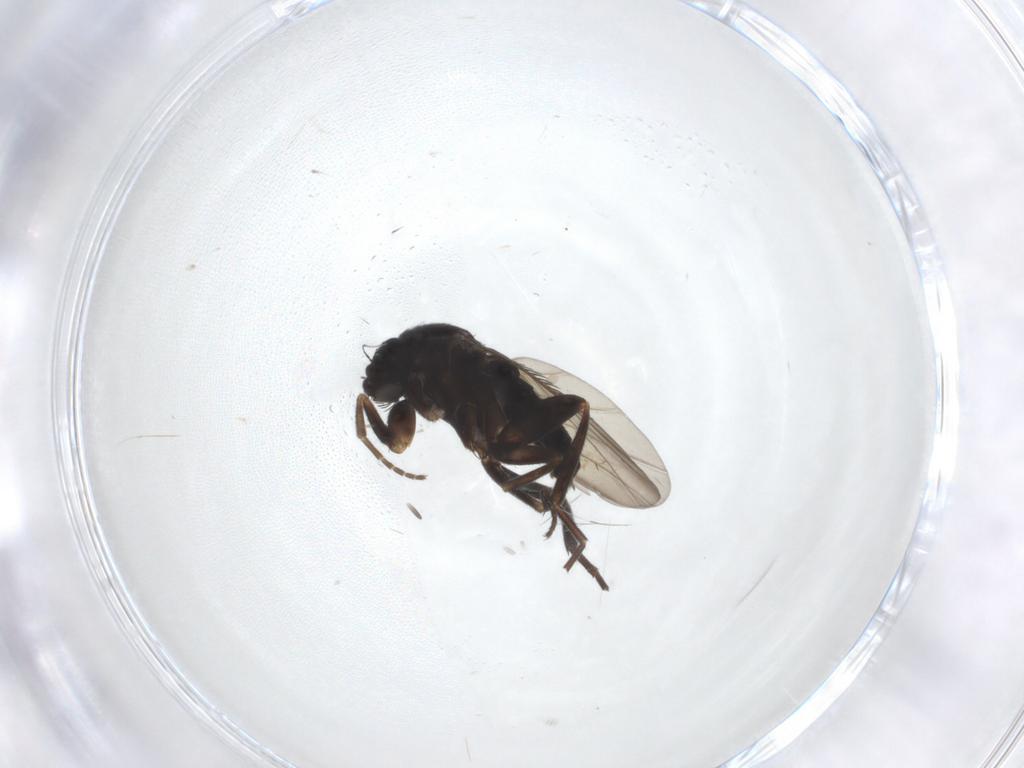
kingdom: Animalia
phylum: Arthropoda
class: Insecta
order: Diptera
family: Phoridae
